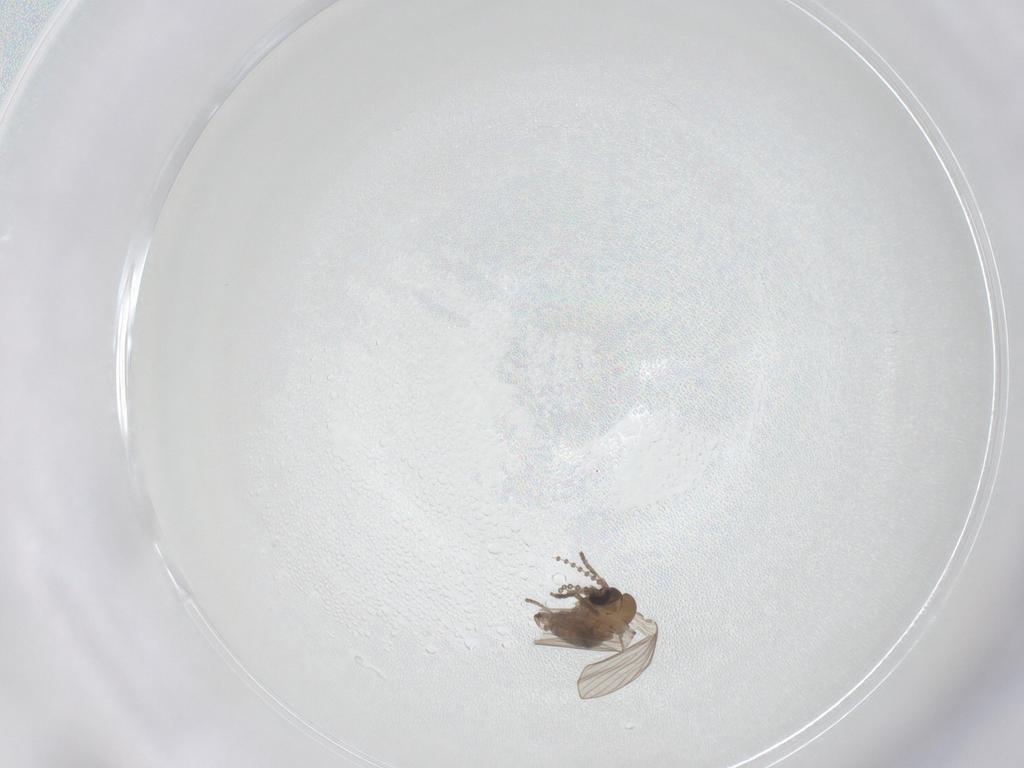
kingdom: Animalia
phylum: Arthropoda
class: Insecta
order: Diptera
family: Psychodidae
